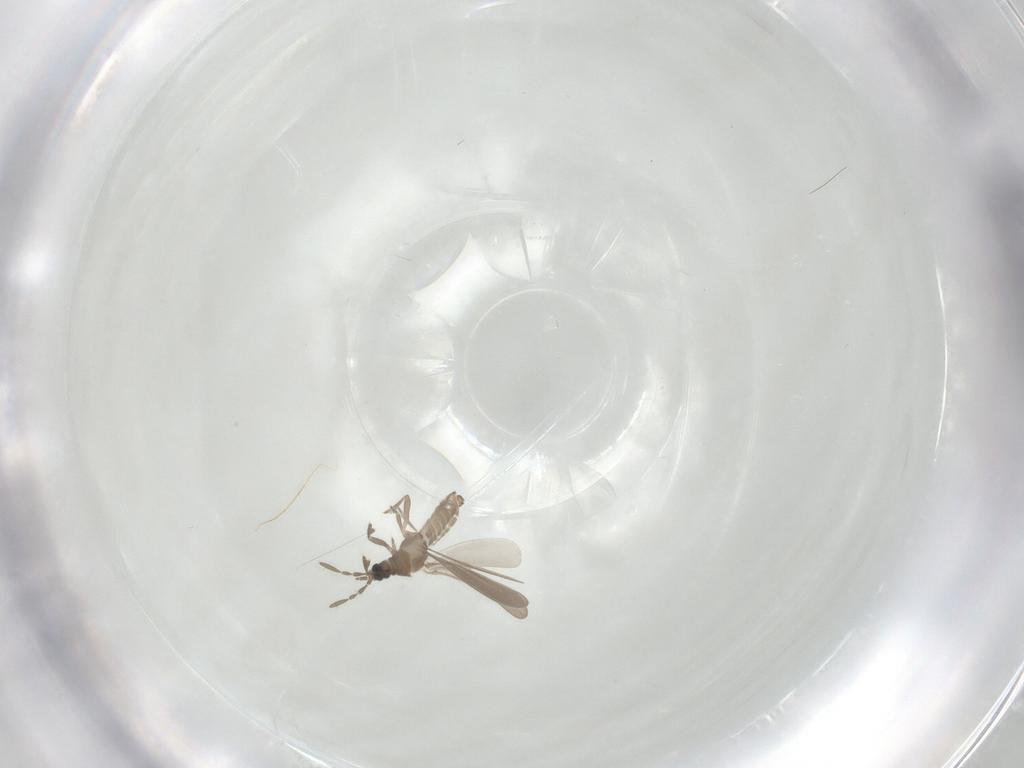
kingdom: Animalia
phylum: Arthropoda
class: Insecta
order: Hemiptera
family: Enicocephalidae
